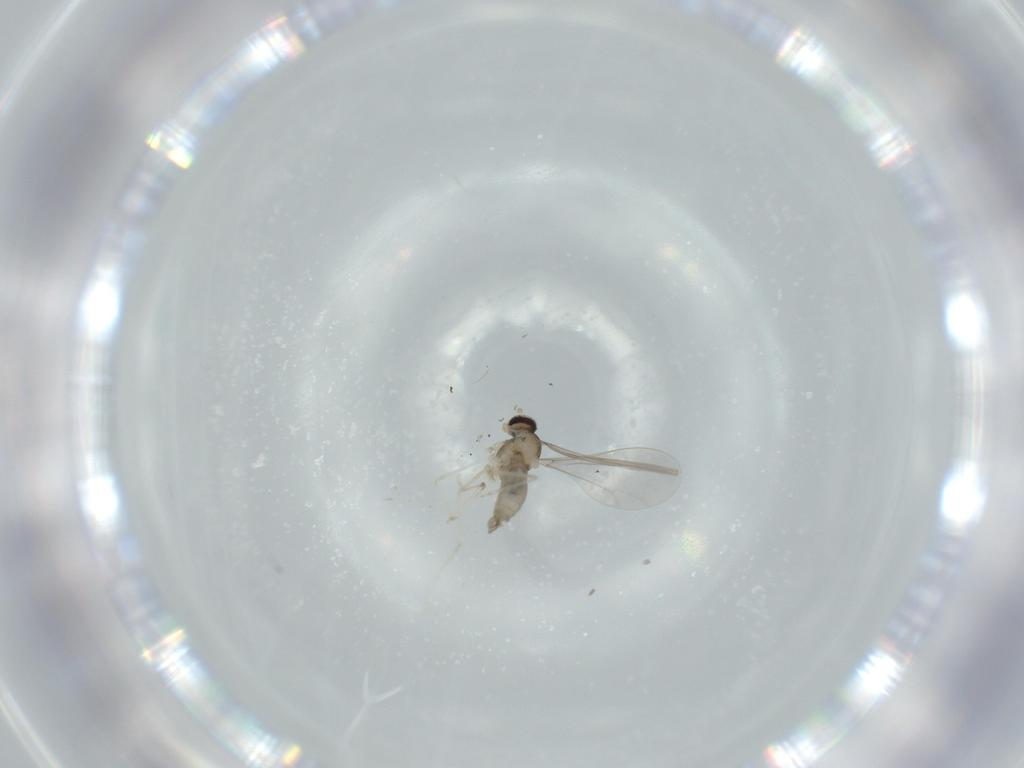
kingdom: Animalia
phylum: Arthropoda
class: Insecta
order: Diptera
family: Cecidomyiidae
